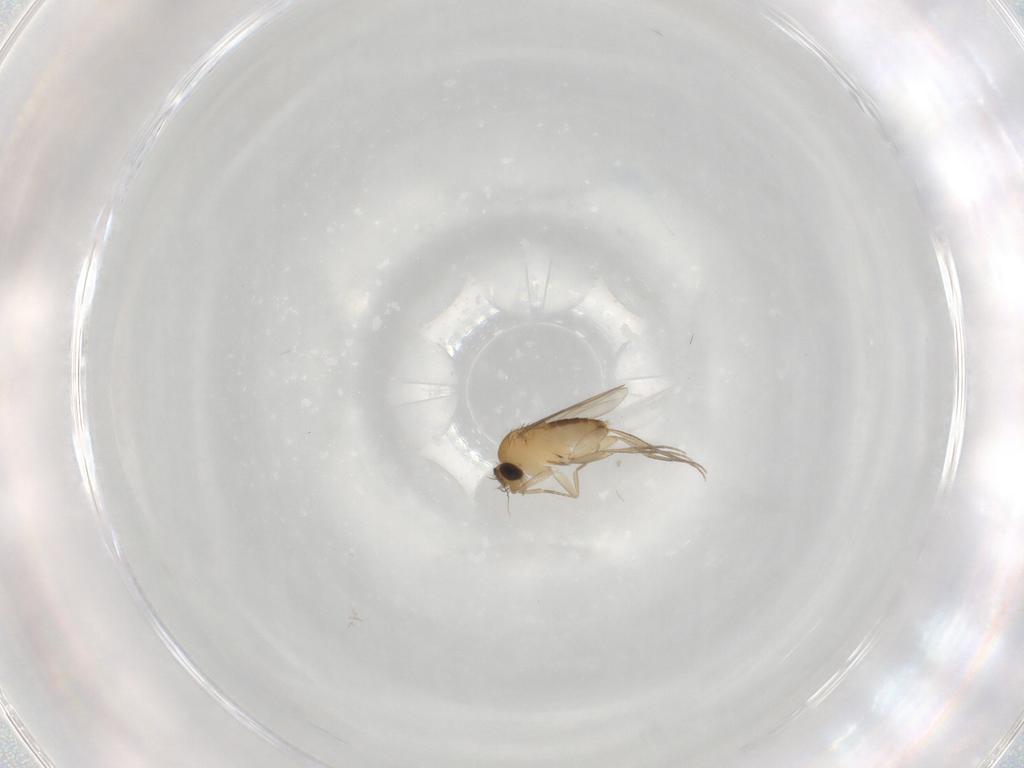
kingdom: Animalia
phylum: Arthropoda
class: Insecta
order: Diptera
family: Phoridae
